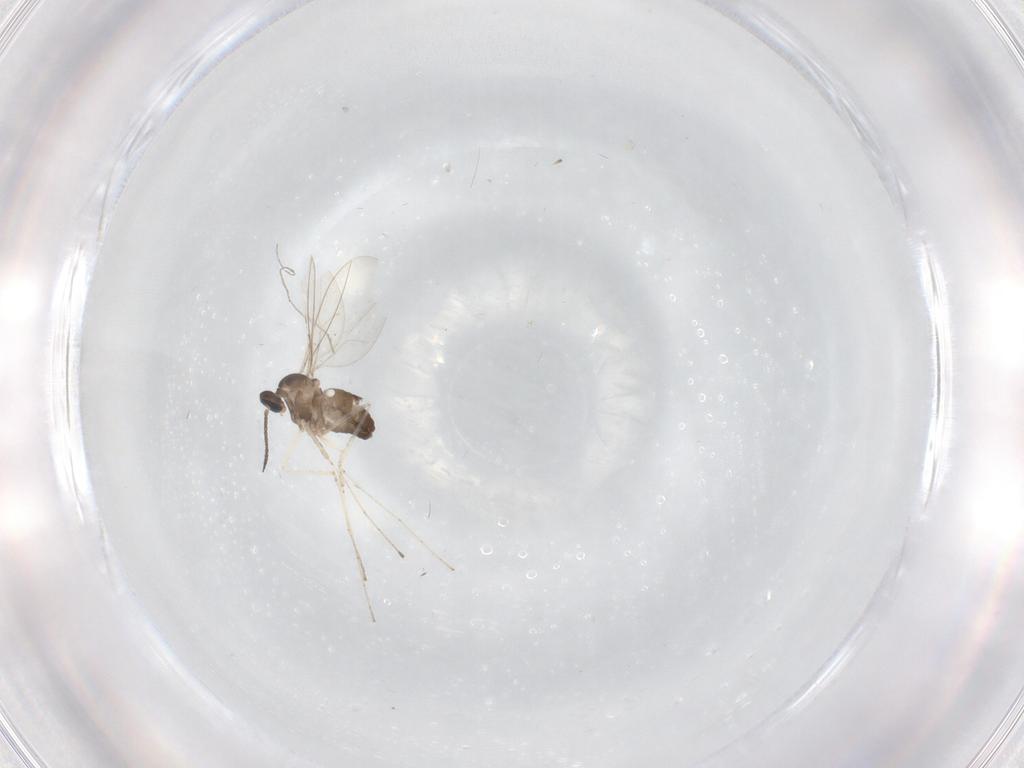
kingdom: Animalia
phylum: Arthropoda
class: Insecta
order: Diptera
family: Cecidomyiidae
